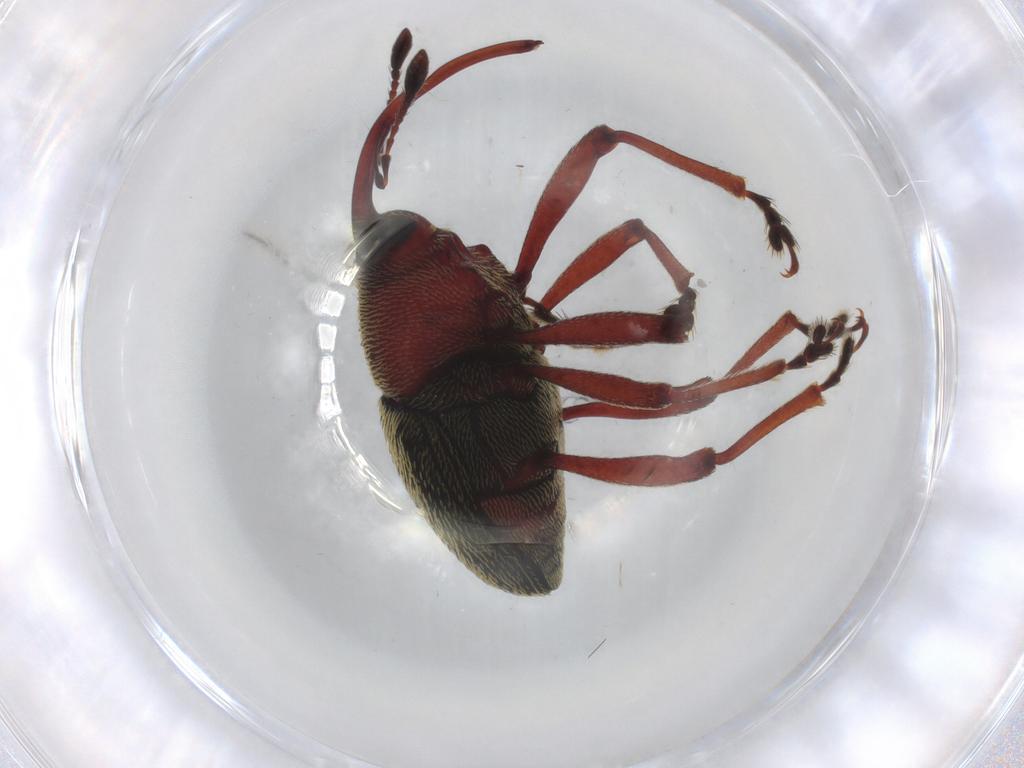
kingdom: Animalia
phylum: Arthropoda
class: Insecta
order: Coleoptera
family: Curculionidae
